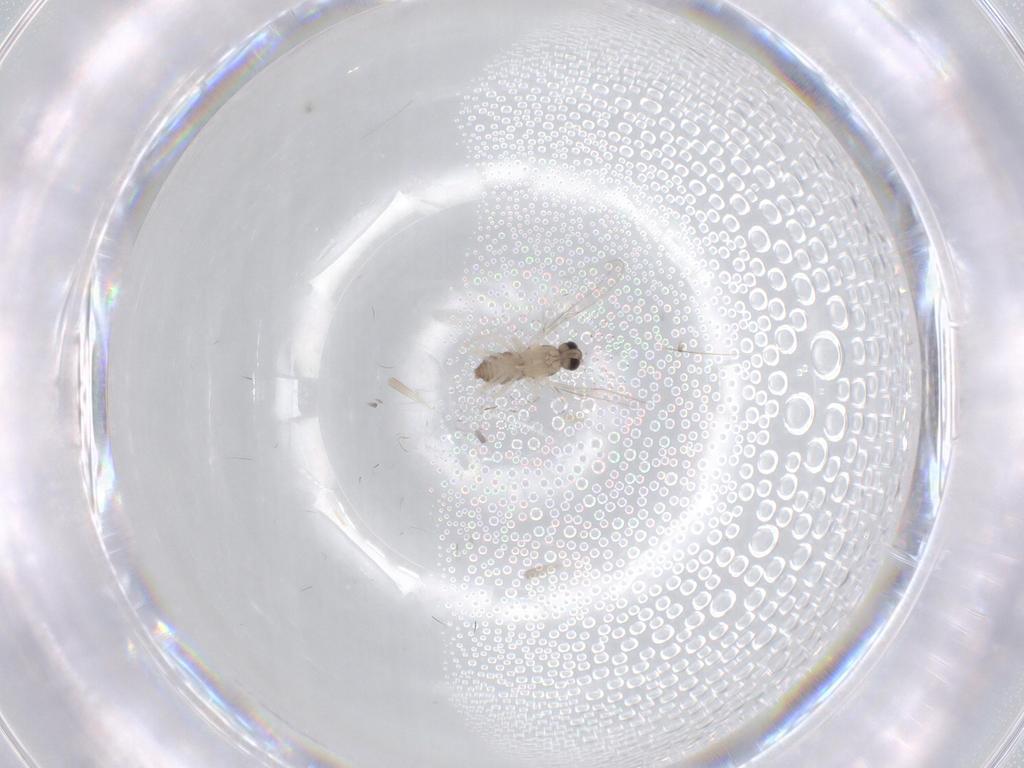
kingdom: Animalia
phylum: Arthropoda
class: Insecta
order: Diptera
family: Cecidomyiidae
